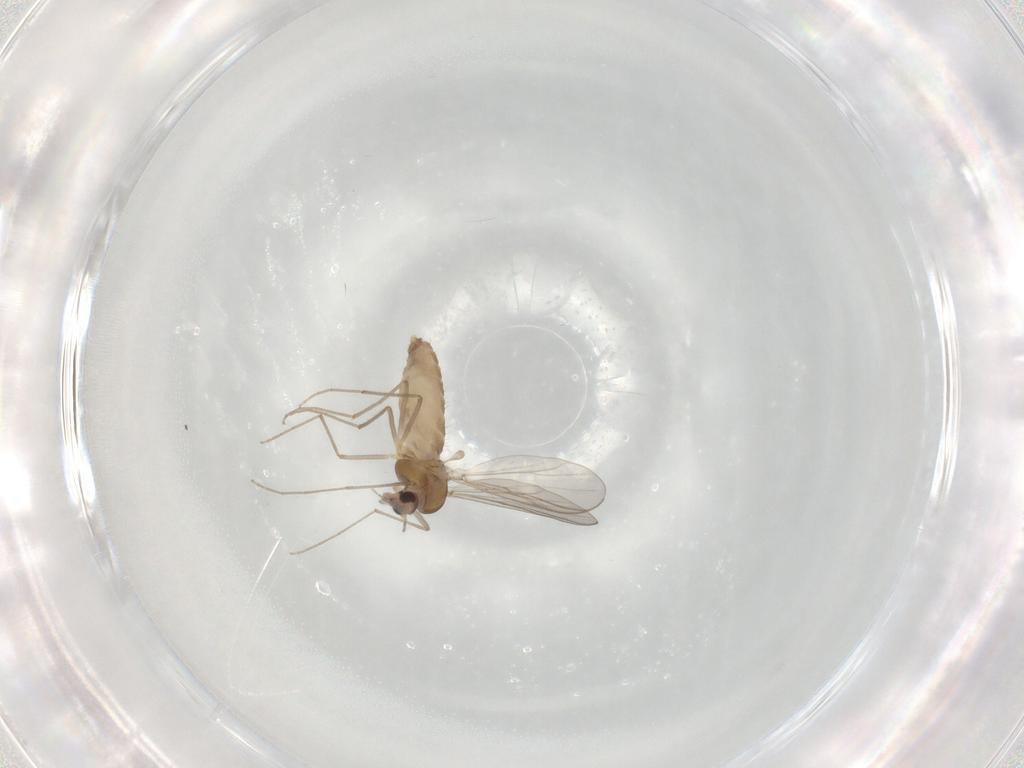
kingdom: Animalia
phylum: Arthropoda
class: Insecta
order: Diptera
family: Chironomidae
